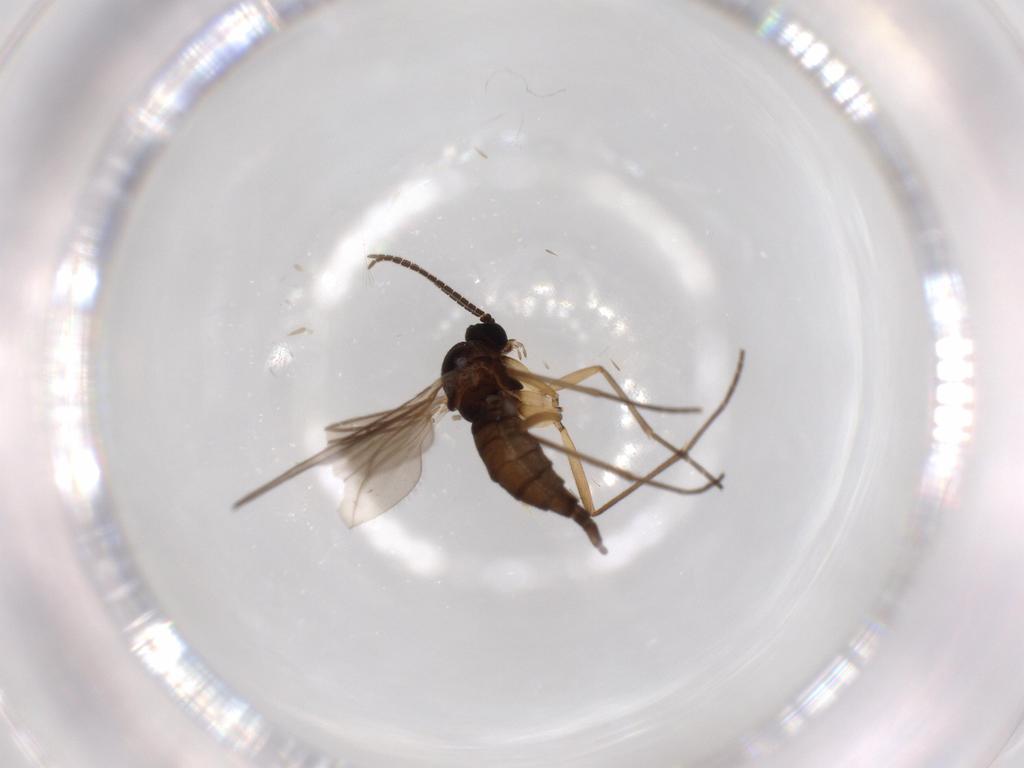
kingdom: Animalia
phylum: Arthropoda
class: Insecta
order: Diptera
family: Sciaridae
